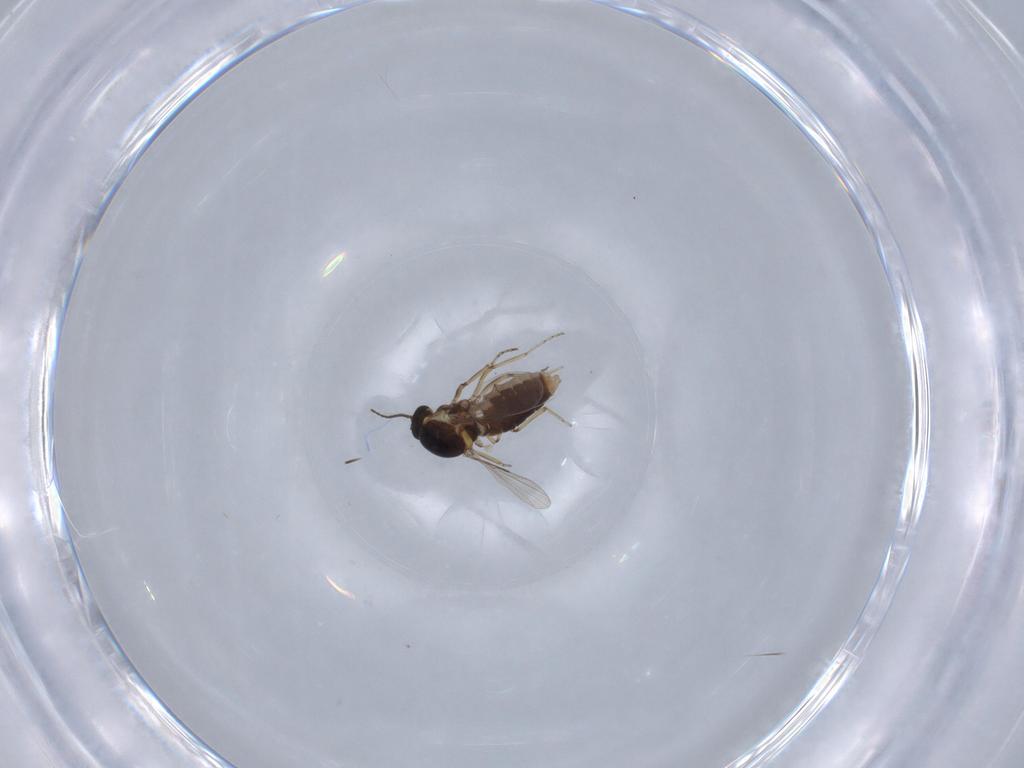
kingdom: Animalia
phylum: Arthropoda
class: Insecta
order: Diptera
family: Ceratopogonidae
